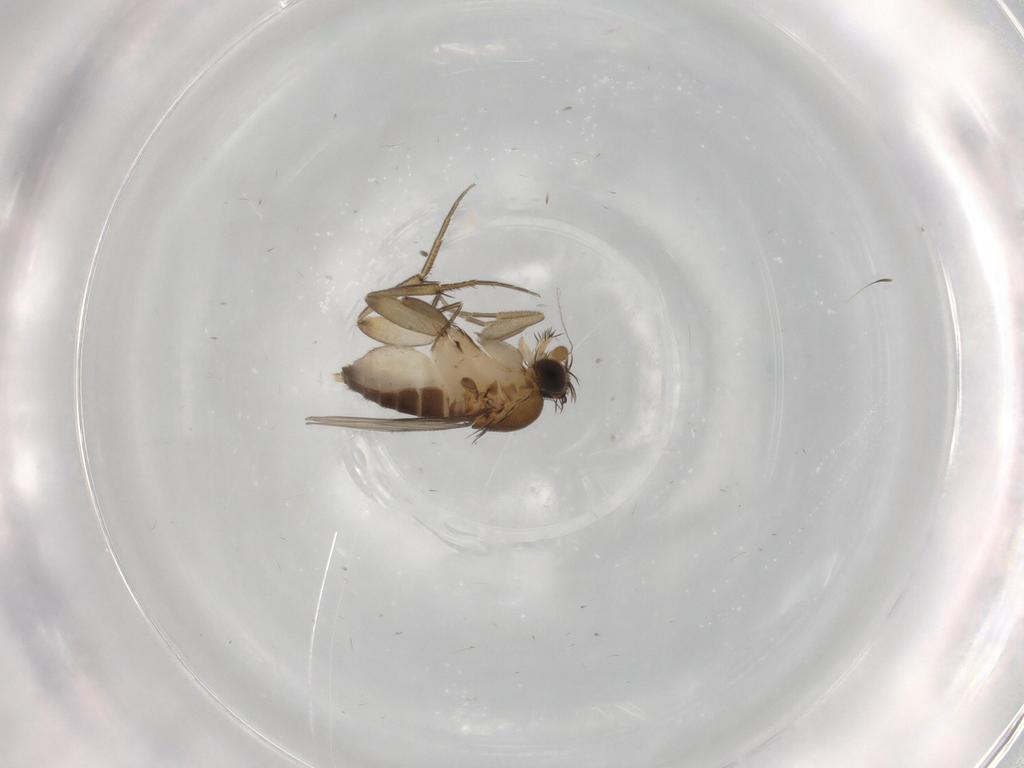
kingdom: Animalia
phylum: Arthropoda
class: Insecta
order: Diptera
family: Phoridae
